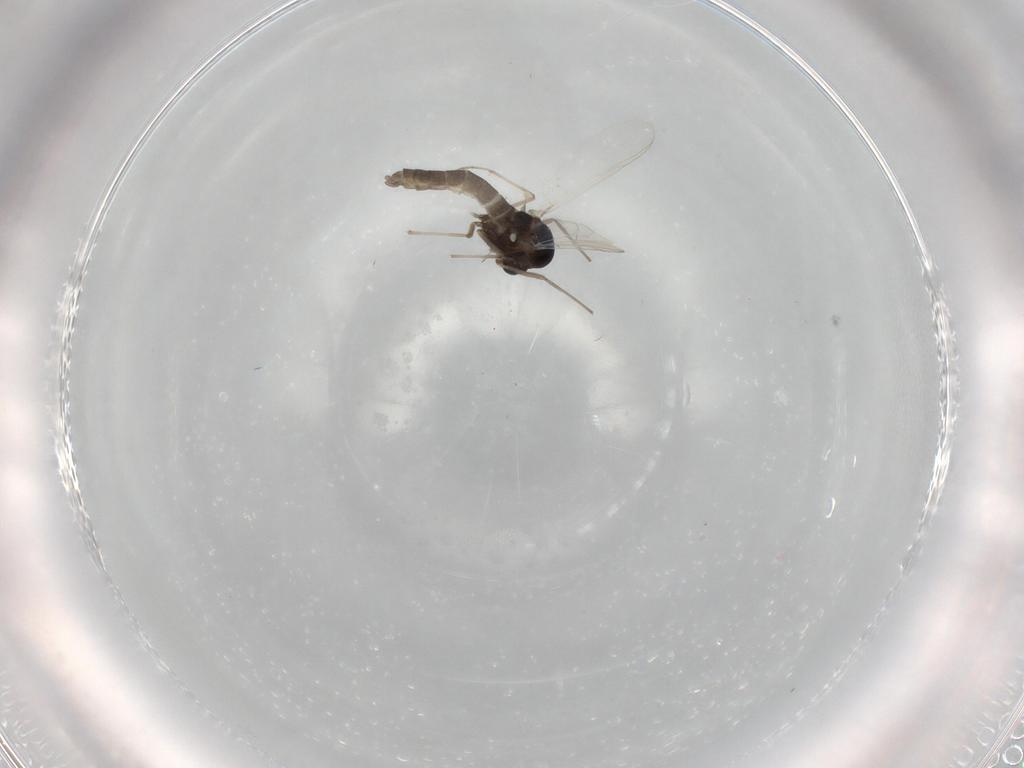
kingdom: Animalia
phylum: Arthropoda
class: Insecta
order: Diptera
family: Chironomidae
